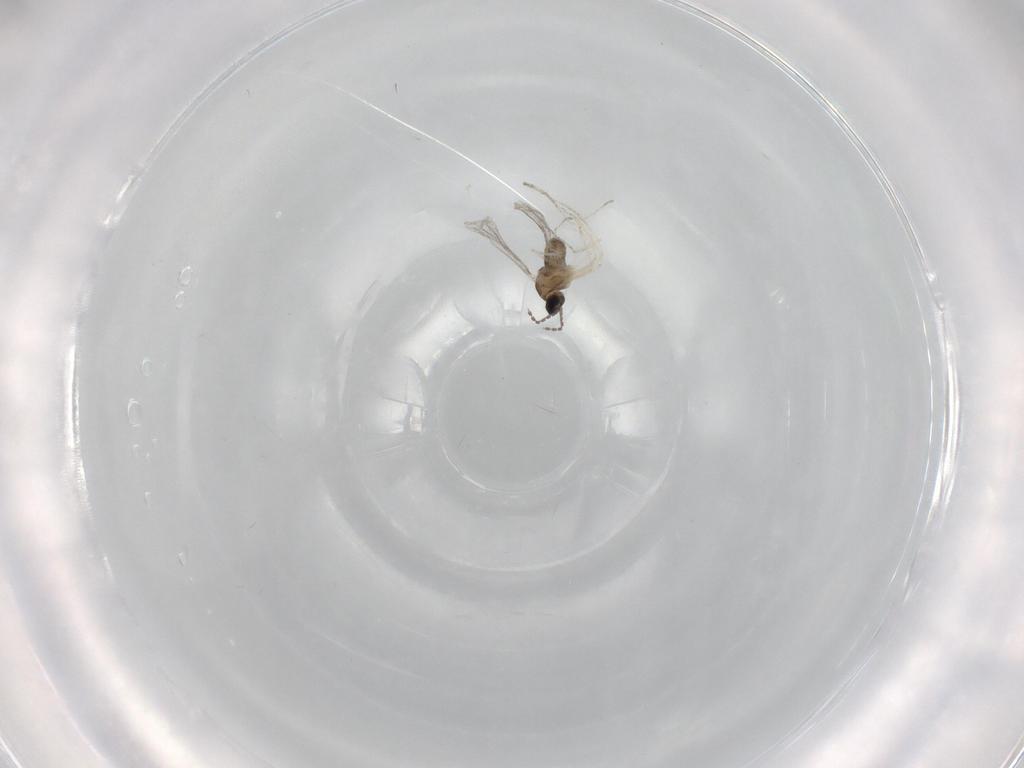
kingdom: Animalia
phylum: Arthropoda
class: Insecta
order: Diptera
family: Cecidomyiidae
